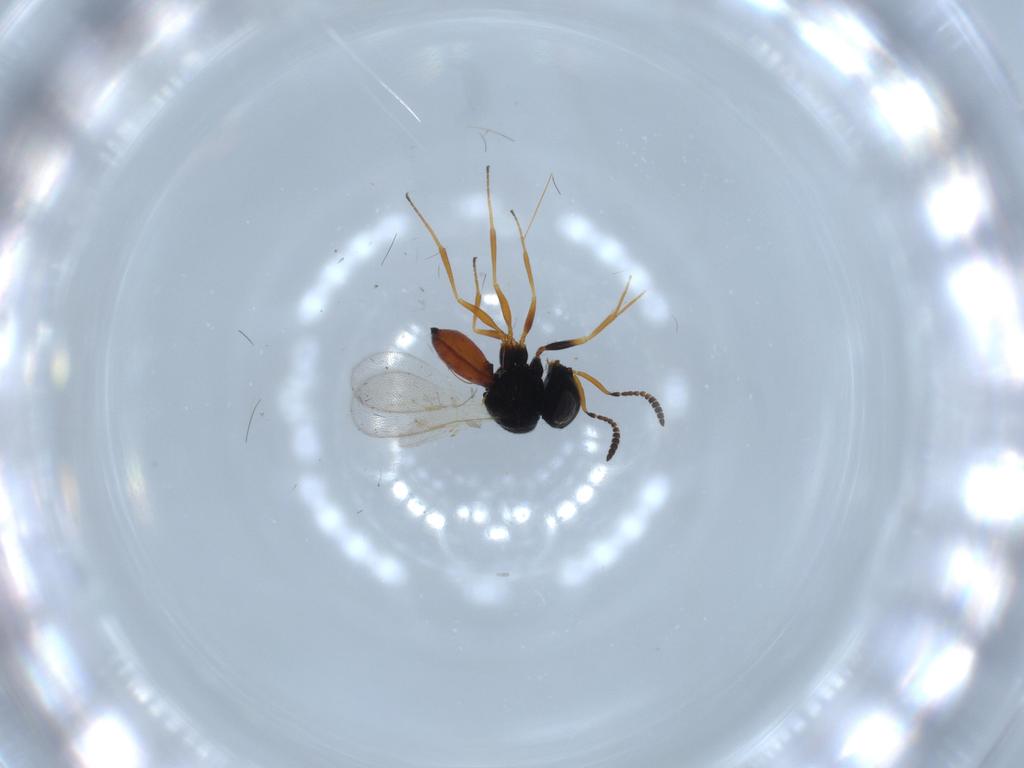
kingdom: Animalia
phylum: Arthropoda
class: Insecta
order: Hymenoptera
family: Scelionidae
